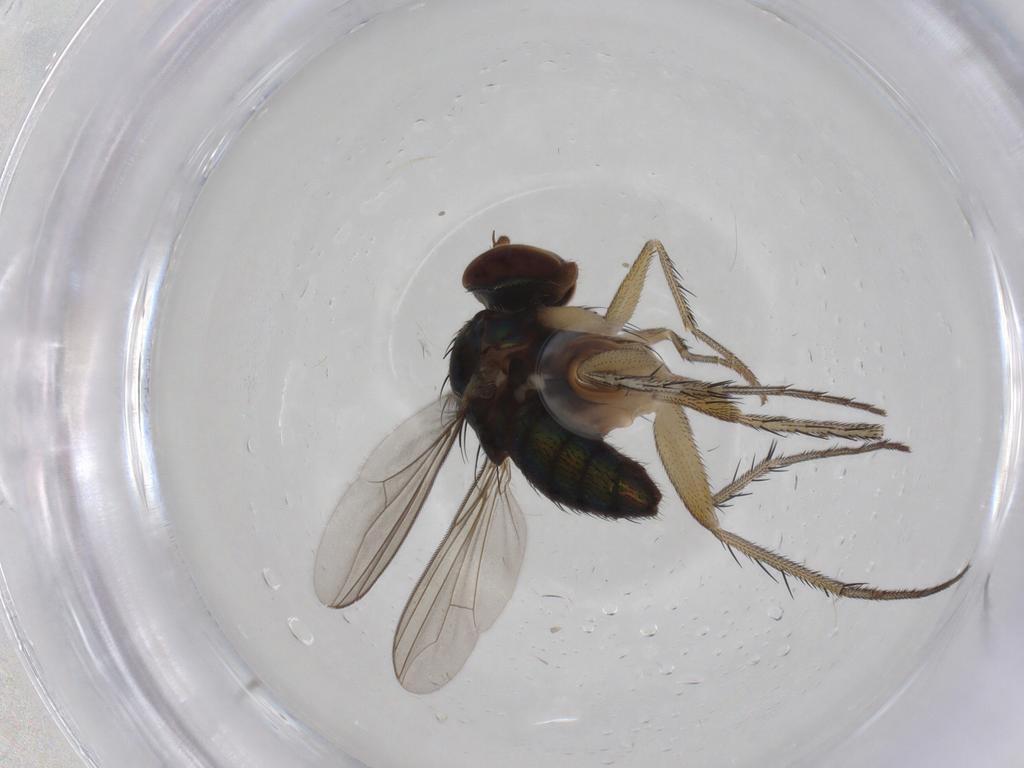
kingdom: Animalia
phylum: Arthropoda
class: Insecta
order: Diptera
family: Dolichopodidae
